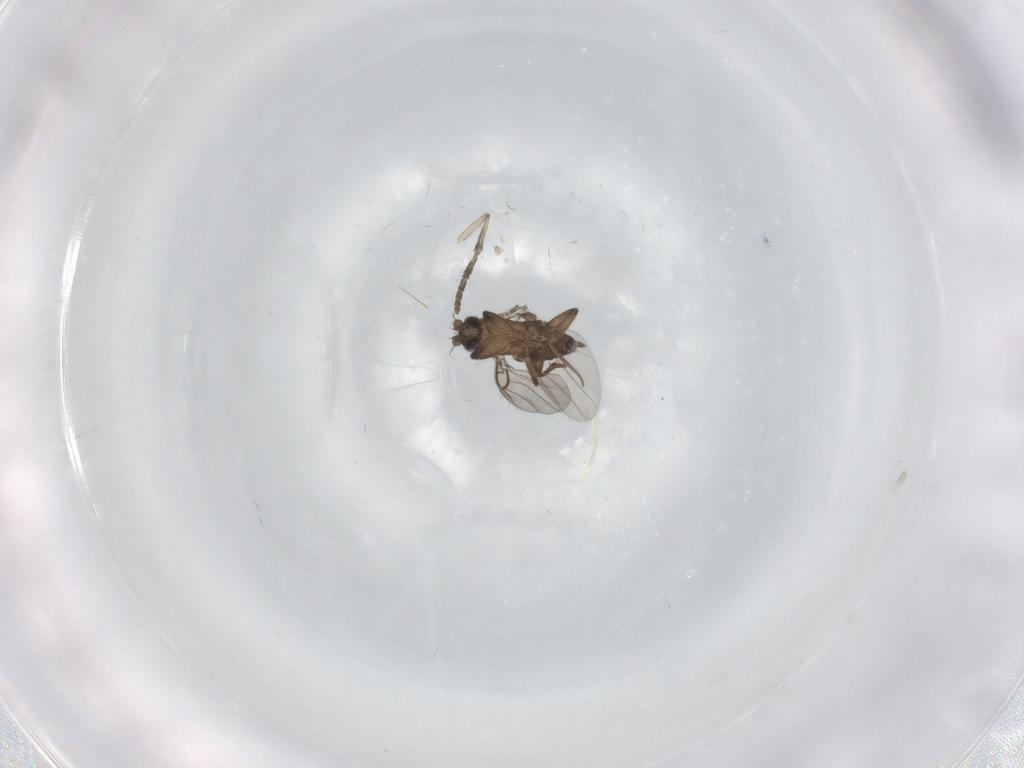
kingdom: Animalia
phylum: Arthropoda
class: Insecta
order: Diptera
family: Phoridae
